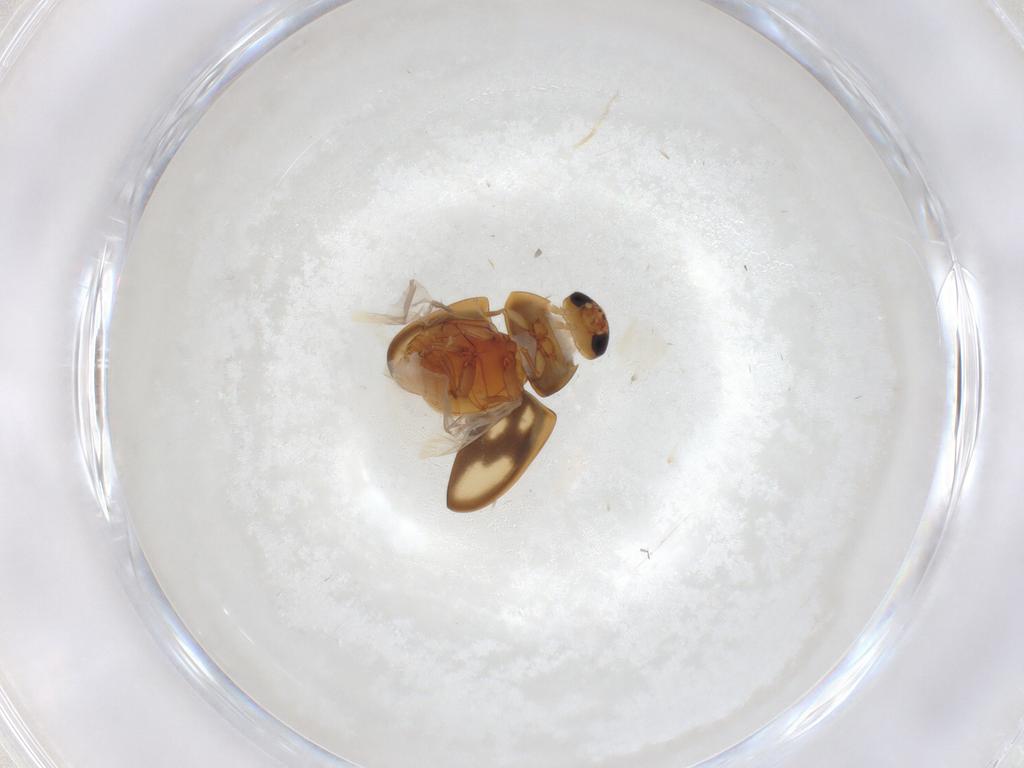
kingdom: Animalia
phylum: Arthropoda
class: Insecta
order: Coleoptera
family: Phalacridae
